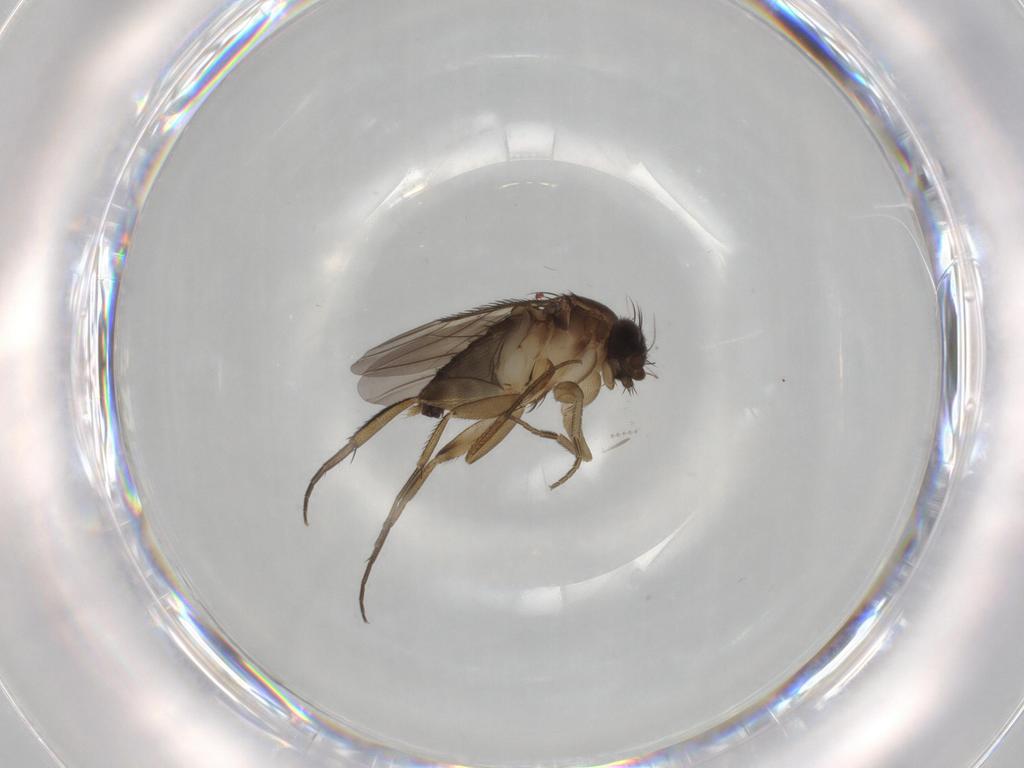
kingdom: Animalia
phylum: Arthropoda
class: Insecta
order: Diptera
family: Phoridae
